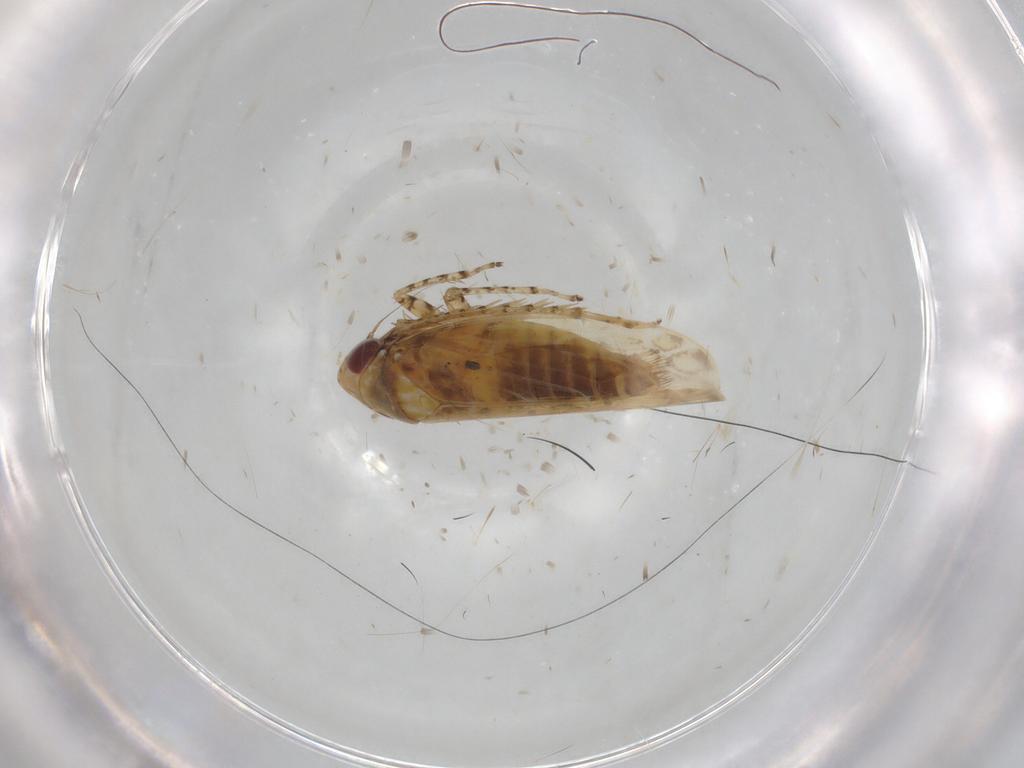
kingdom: Animalia
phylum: Arthropoda
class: Insecta
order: Hemiptera
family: Cicadellidae
